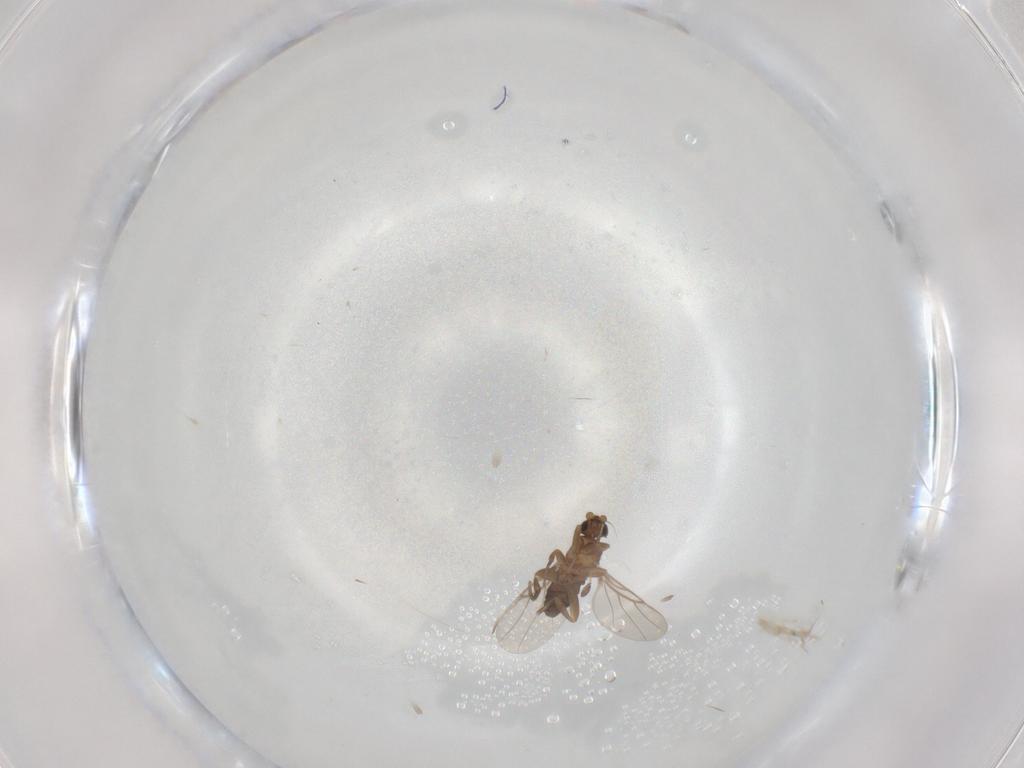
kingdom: Animalia
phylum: Arthropoda
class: Insecta
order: Diptera
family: Phoridae
